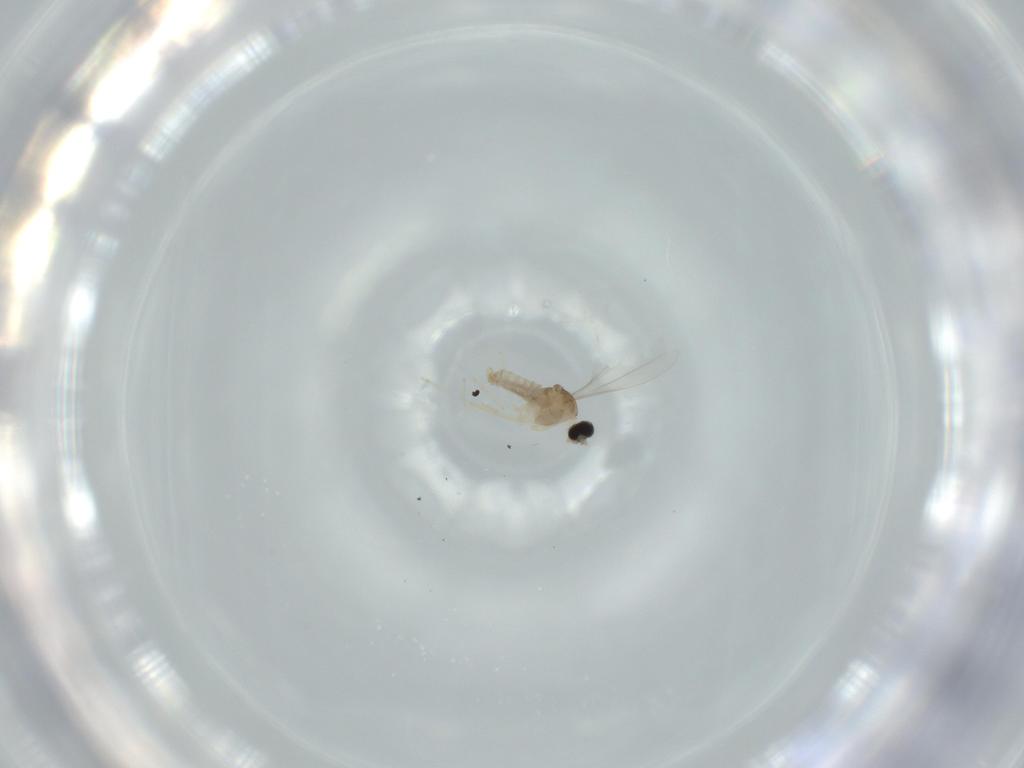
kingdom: Animalia
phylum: Arthropoda
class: Insecta
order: Diptera
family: Cecidomyiidae
